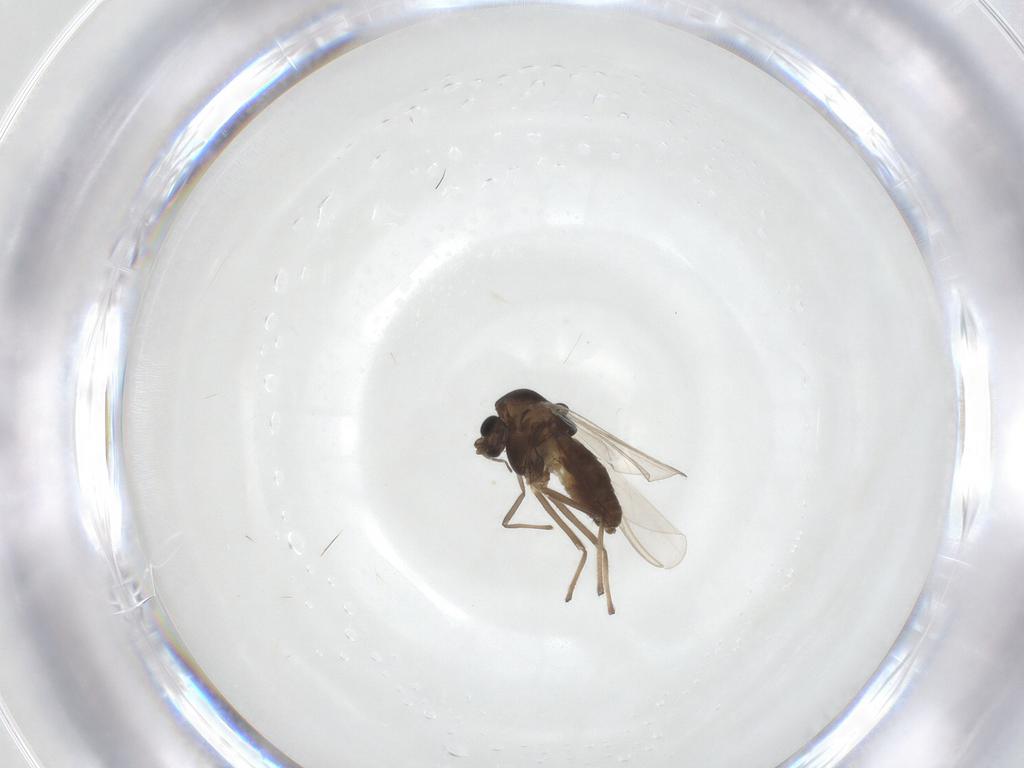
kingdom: Animalia
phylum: Arthropoda
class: Insecta
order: Diptera
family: Chironomidae
